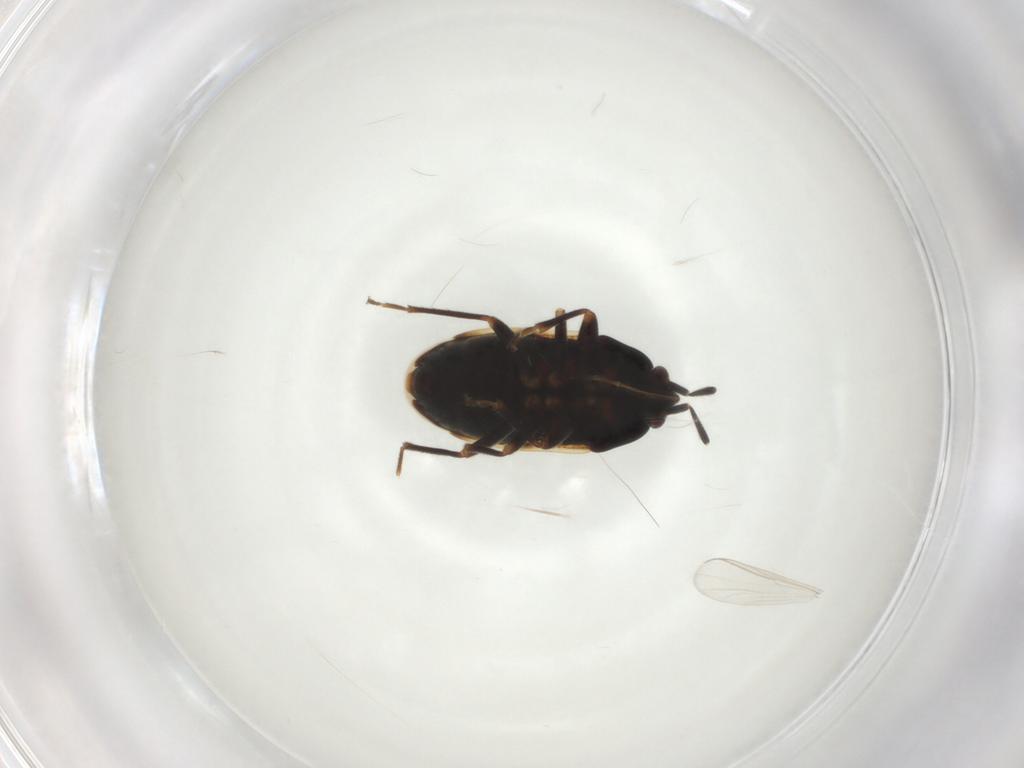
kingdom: Animalia
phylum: Arthropoda
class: Insecta
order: Hemiptera
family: Rhyparochromidae
